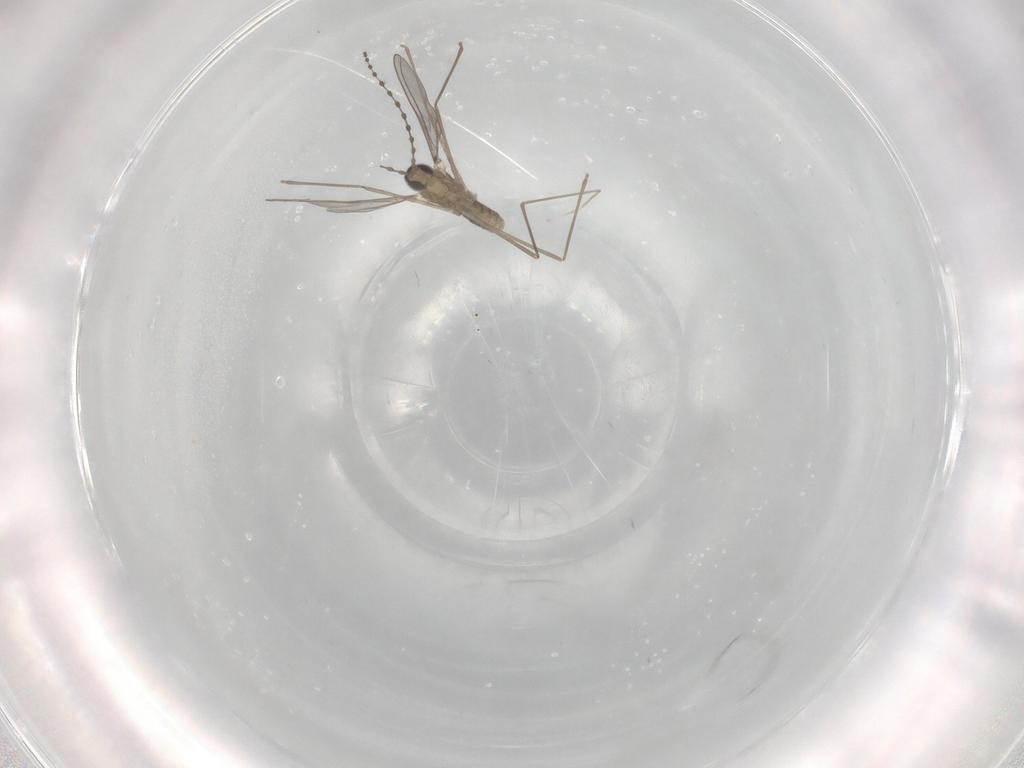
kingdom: Animalia
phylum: Arthropoda
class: Insecta
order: Diptera
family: Cecidomyiidae
